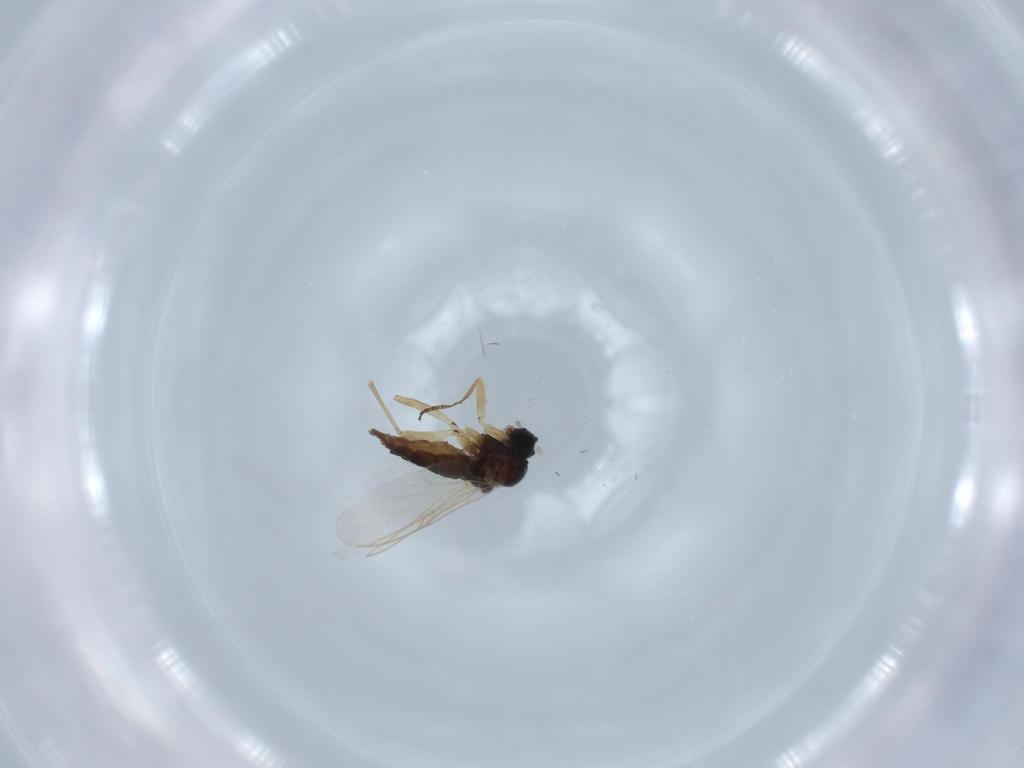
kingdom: Animalia
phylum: Arthropoda
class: Insecta
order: Diptera
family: Sciaridae
